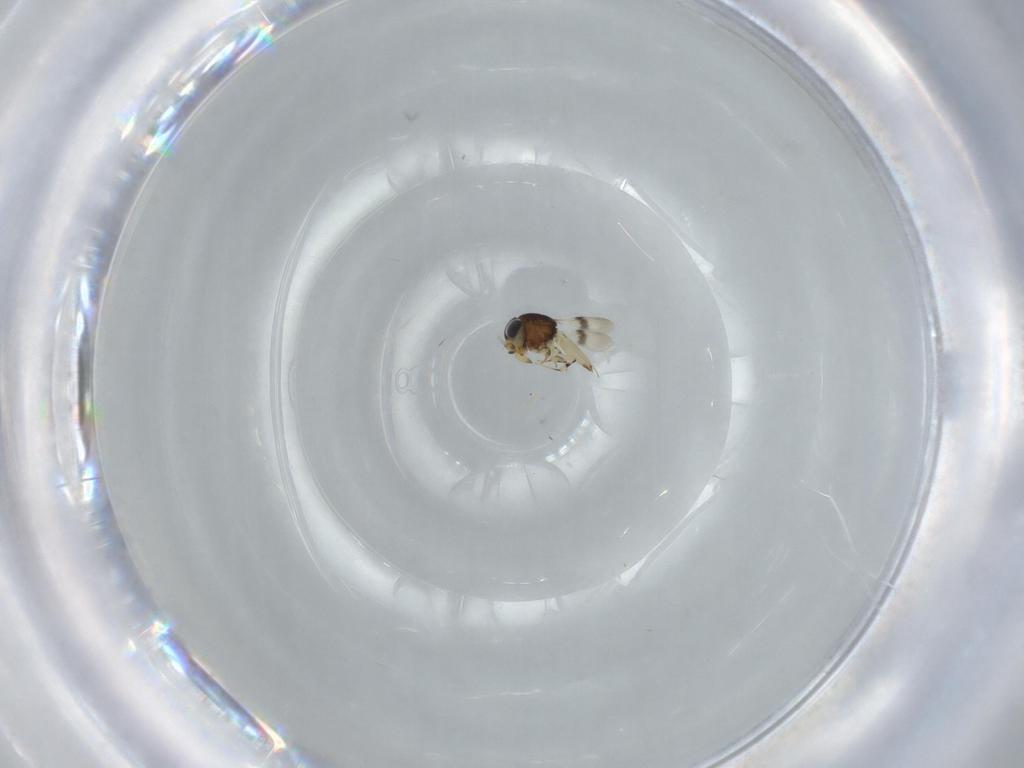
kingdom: Animalia
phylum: Arthropoda
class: Insecta
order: Hymenoptera
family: Scelionidae
